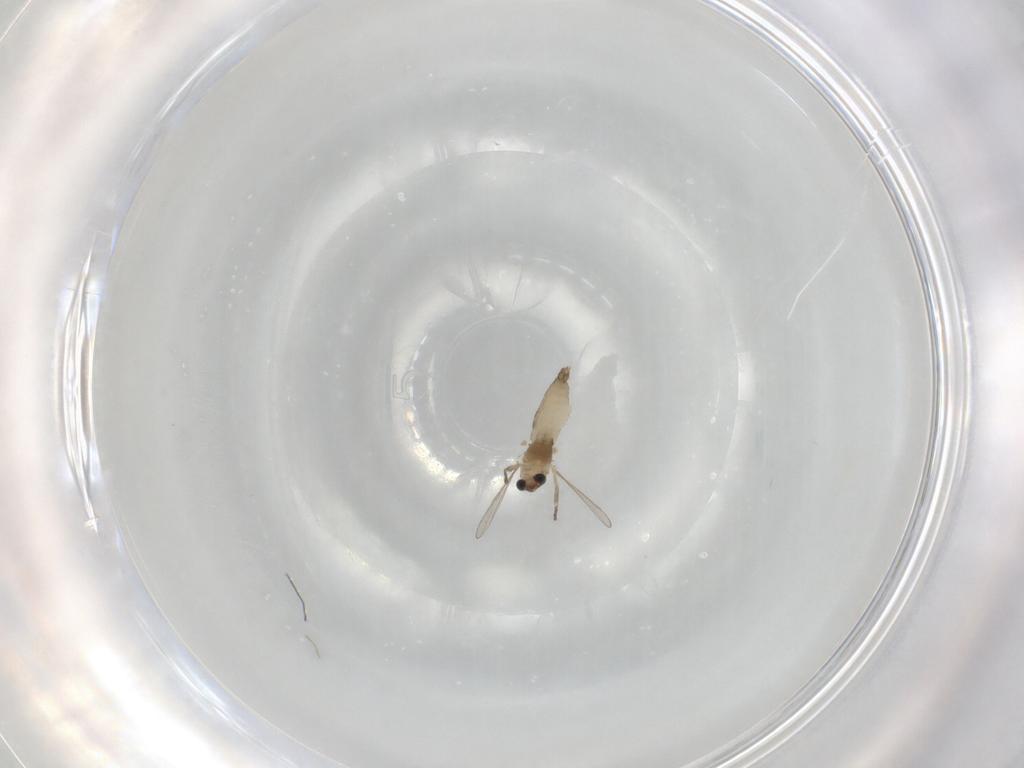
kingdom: Animalia
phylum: Arthropoda
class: Insecta
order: Diptera
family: Chironomidae
